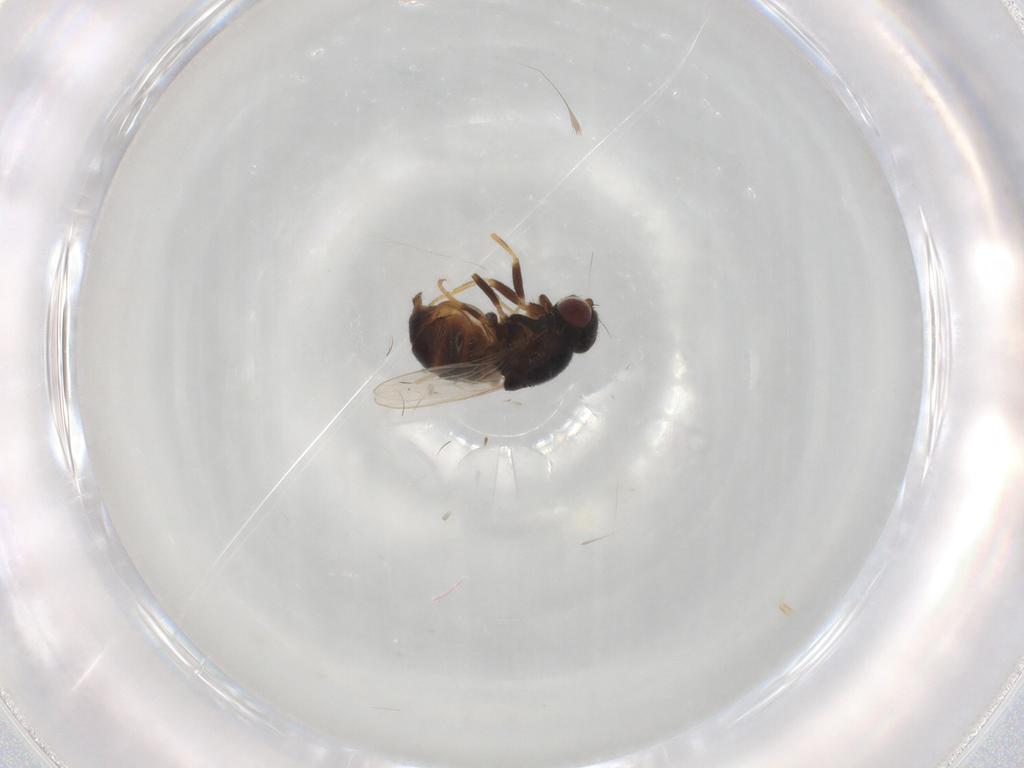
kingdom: Animalia
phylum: Arthropoda
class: Insecta
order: Diptera
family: Chloropidae
